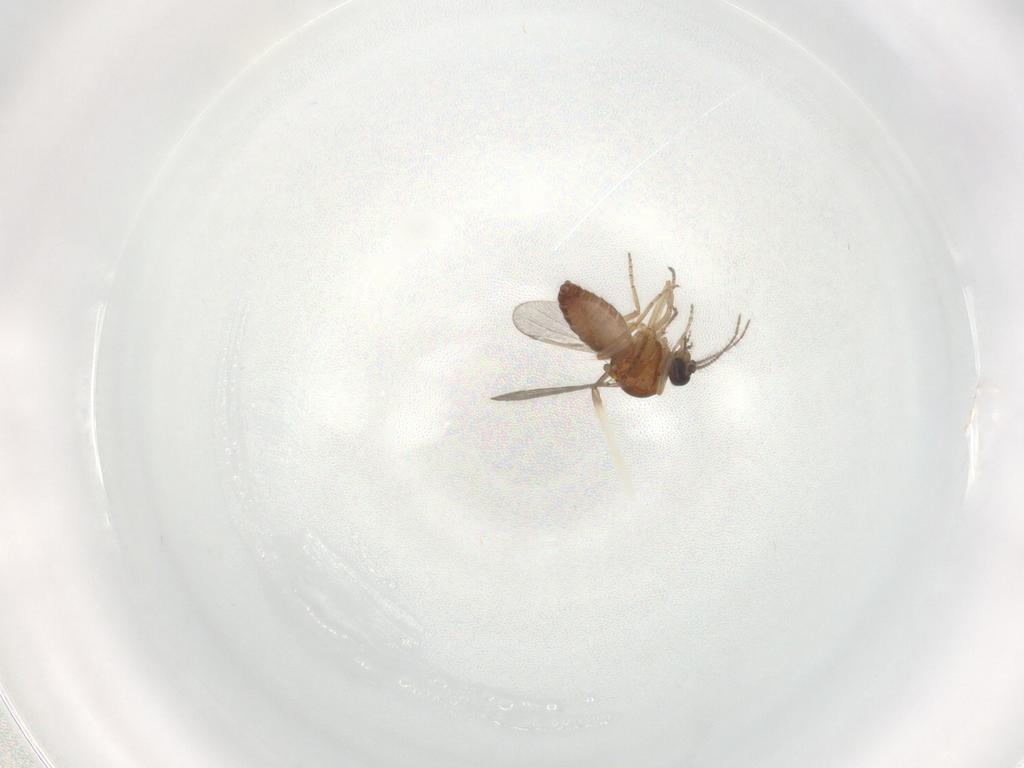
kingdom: Animalia
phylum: Arthropoda
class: Insecta
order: Diptera
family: Ceratopogonidae
